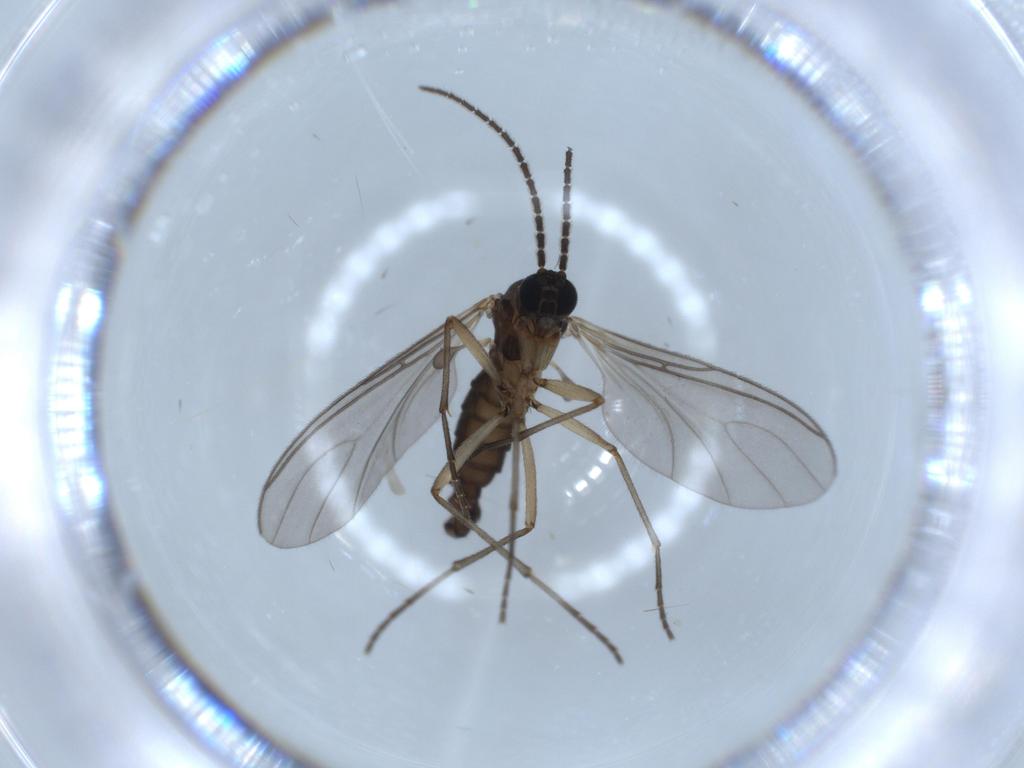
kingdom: Animalia
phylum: Arthropoda
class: Insecta
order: Diptera
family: Sciaridae
